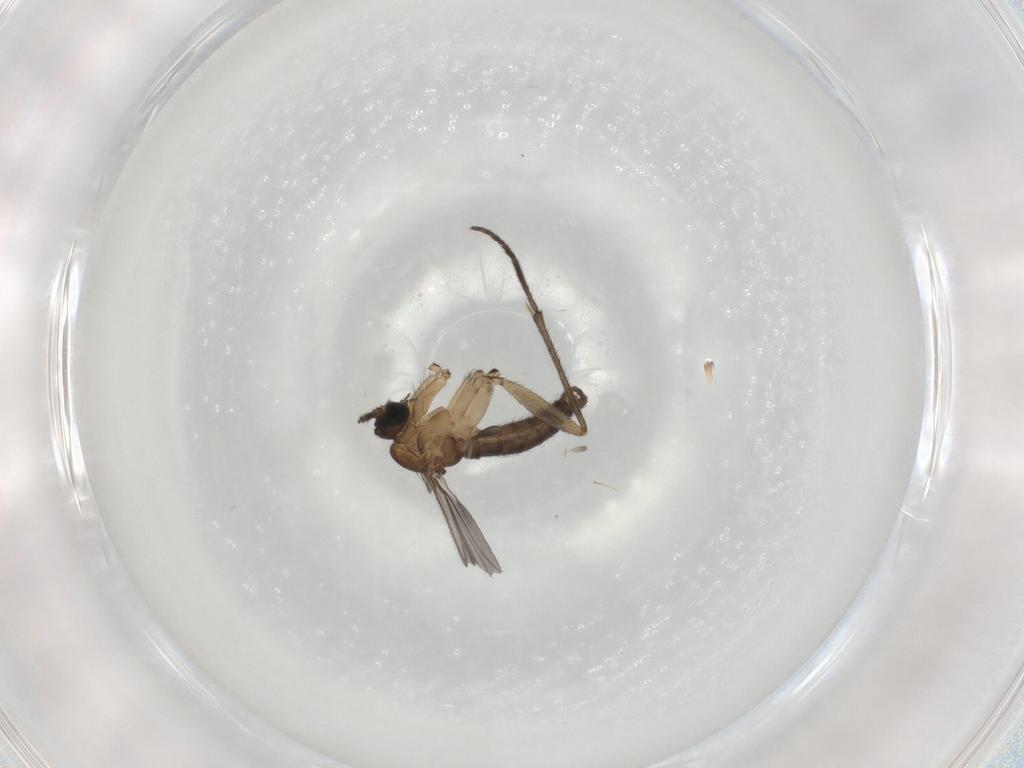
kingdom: Animalia
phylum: Arthropoda
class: Insecta
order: Diptera
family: Sciaridae
